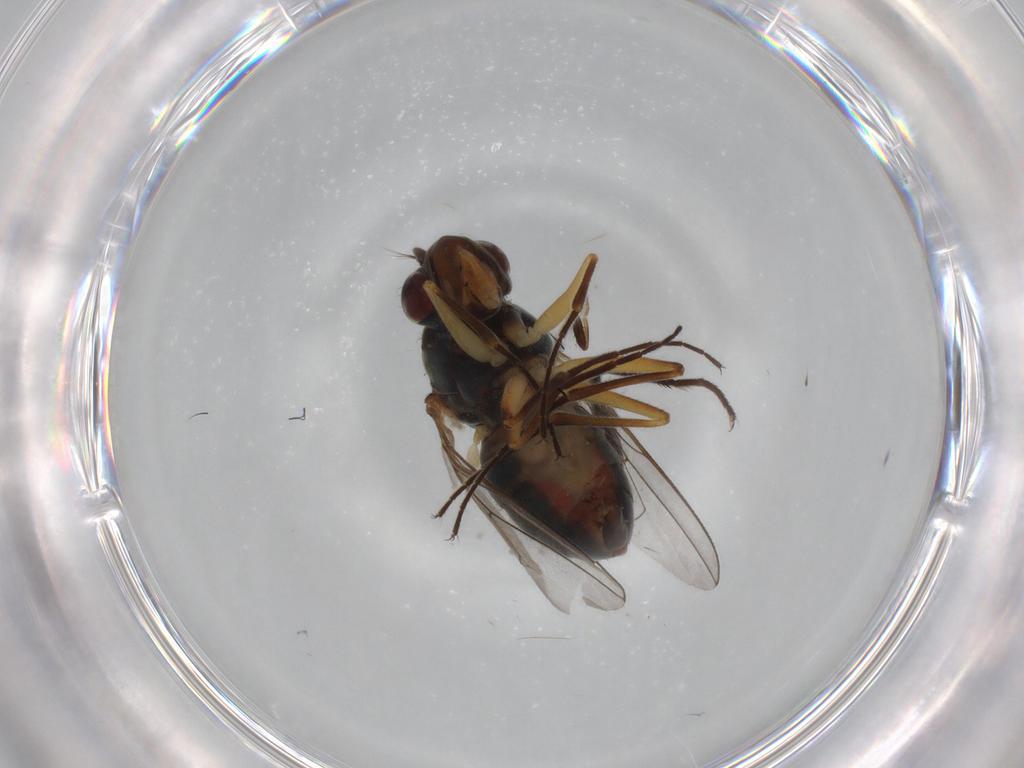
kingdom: Animalia
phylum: Arthropoda
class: Insecta
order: Diptera
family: Ephydridae
